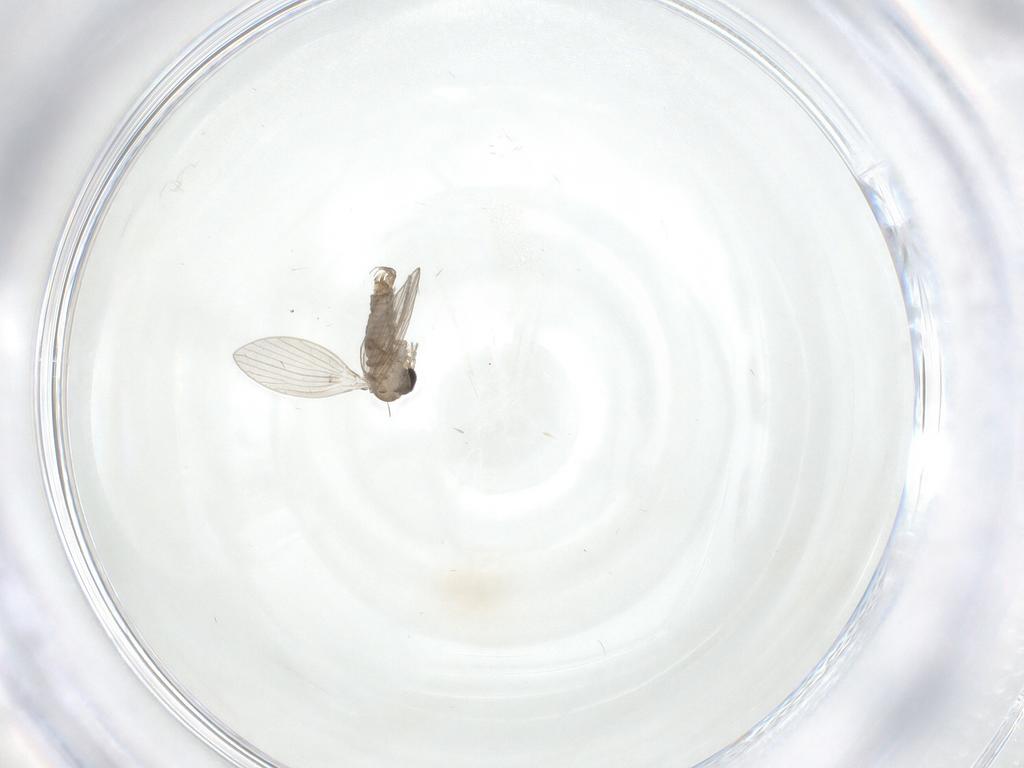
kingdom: Animalia
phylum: Arthropoda
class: Insecta
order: Diptera
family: Psychodidae
